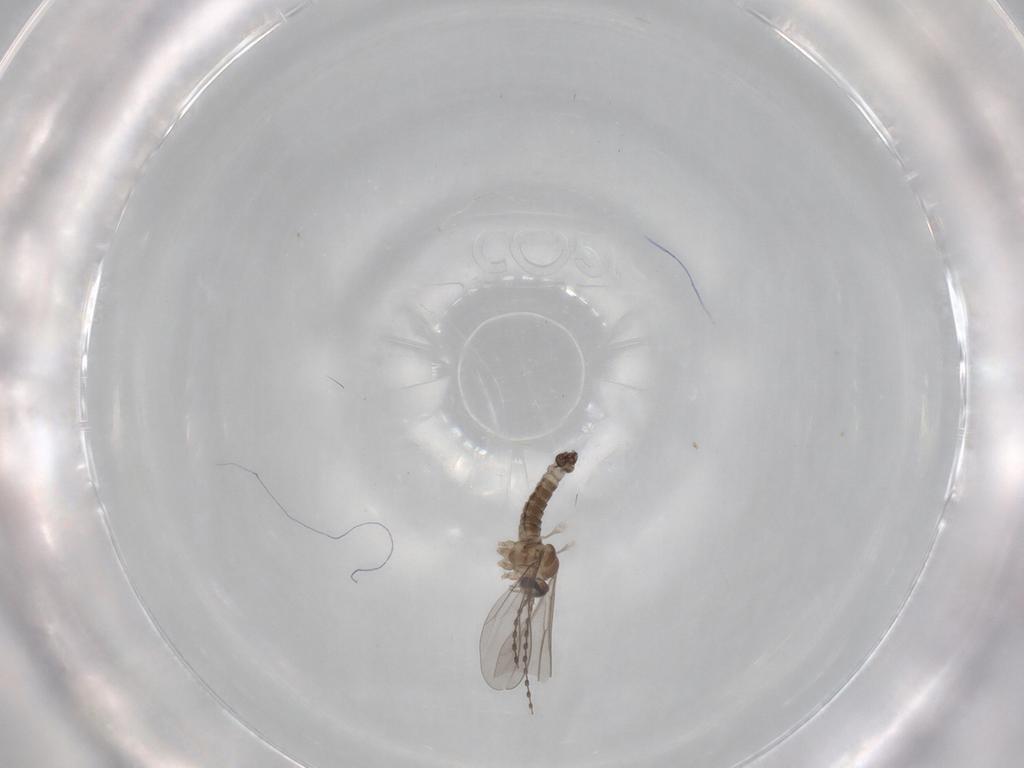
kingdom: Animalia
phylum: Arthropoda
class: Insecta
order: Diptera
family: Cecidomyiidae
